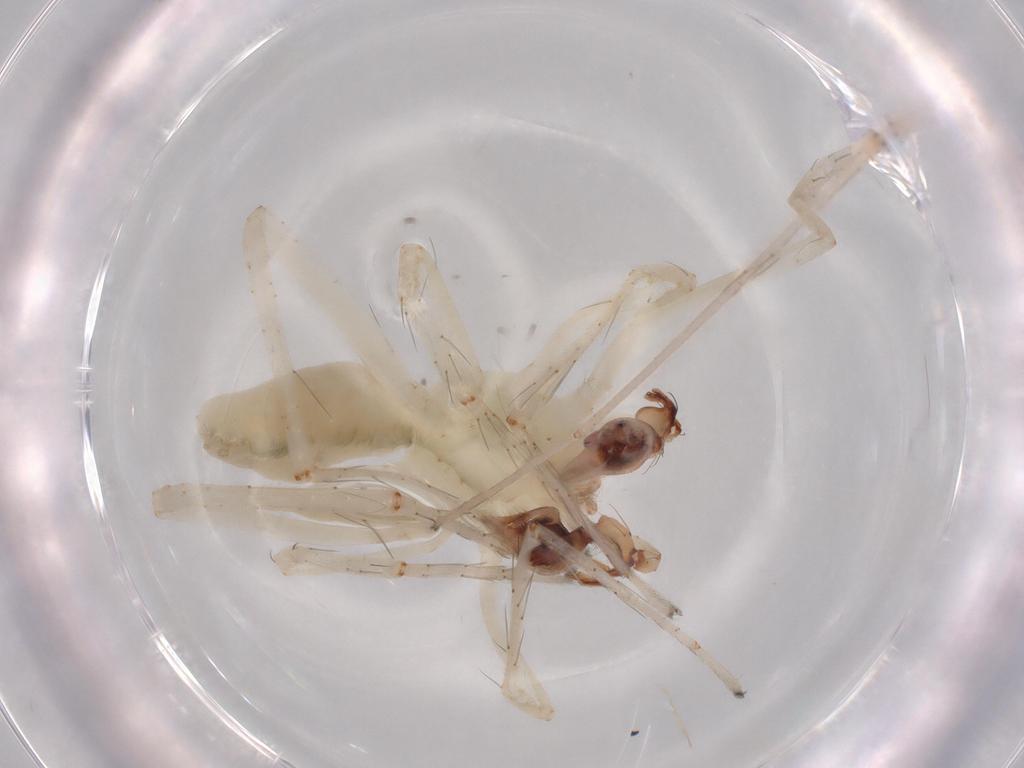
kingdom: Animalia
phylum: Arthropoda
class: Arachnida
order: Araneae
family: Anyphaenidae
